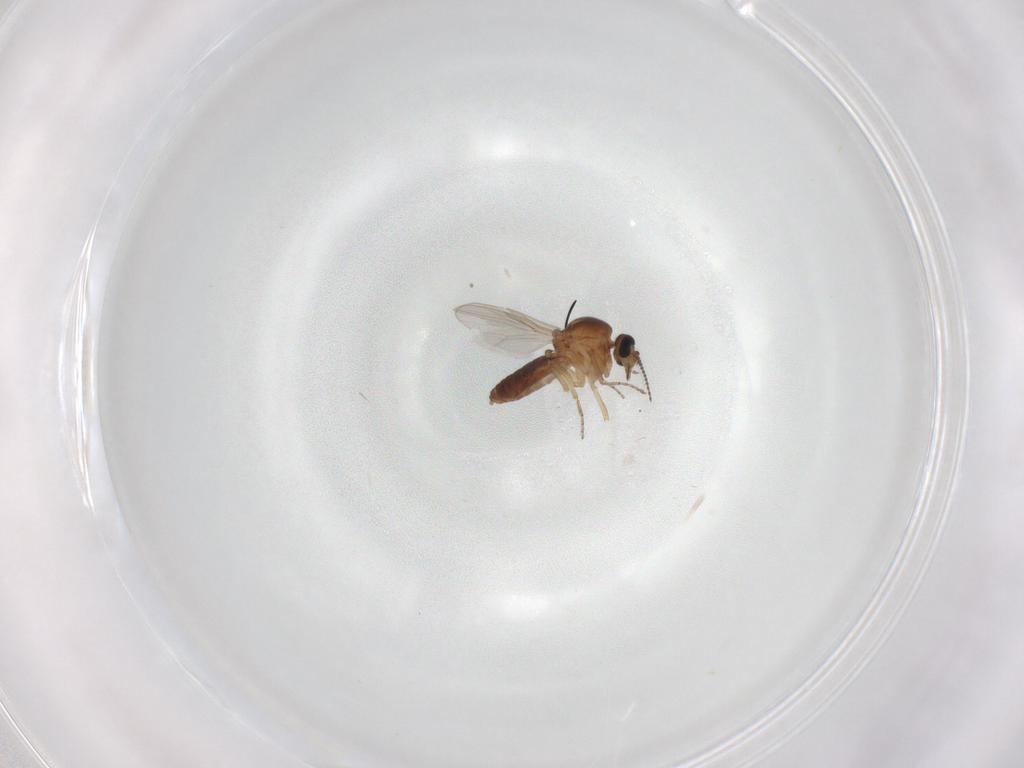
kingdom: Animalia
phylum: Arthropoda
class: Insecta
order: Diptera
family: Ceratopogonidae
